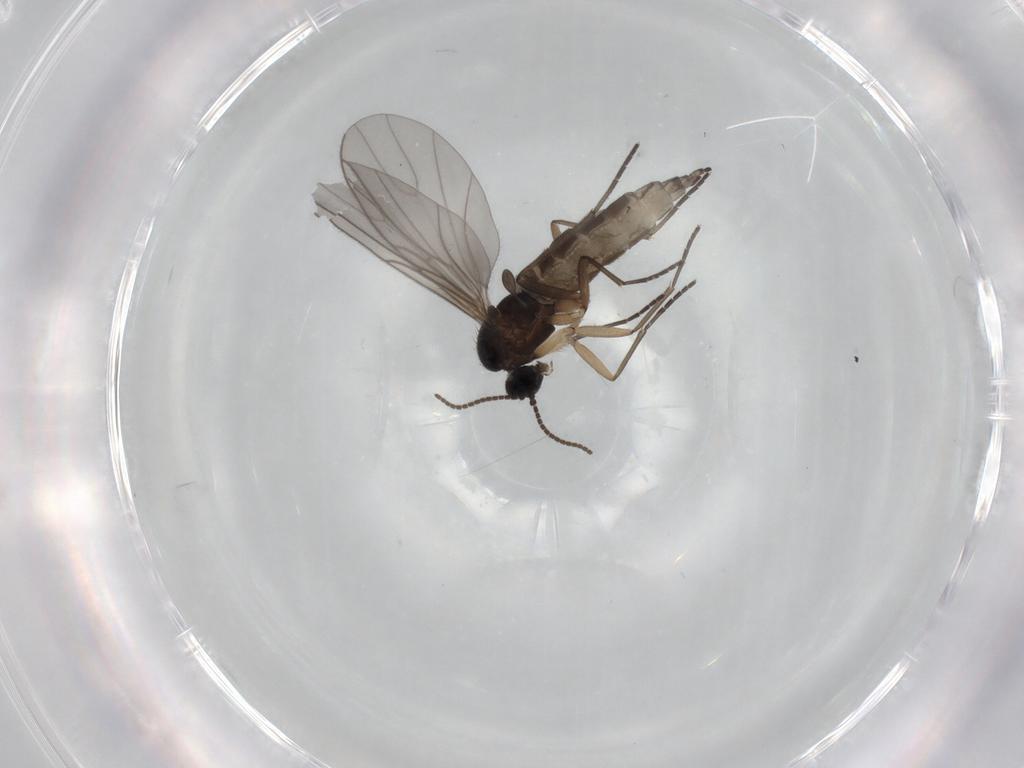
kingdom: Animalia
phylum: Arthropoda
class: Insecta
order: Diptera
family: Sciaridae
